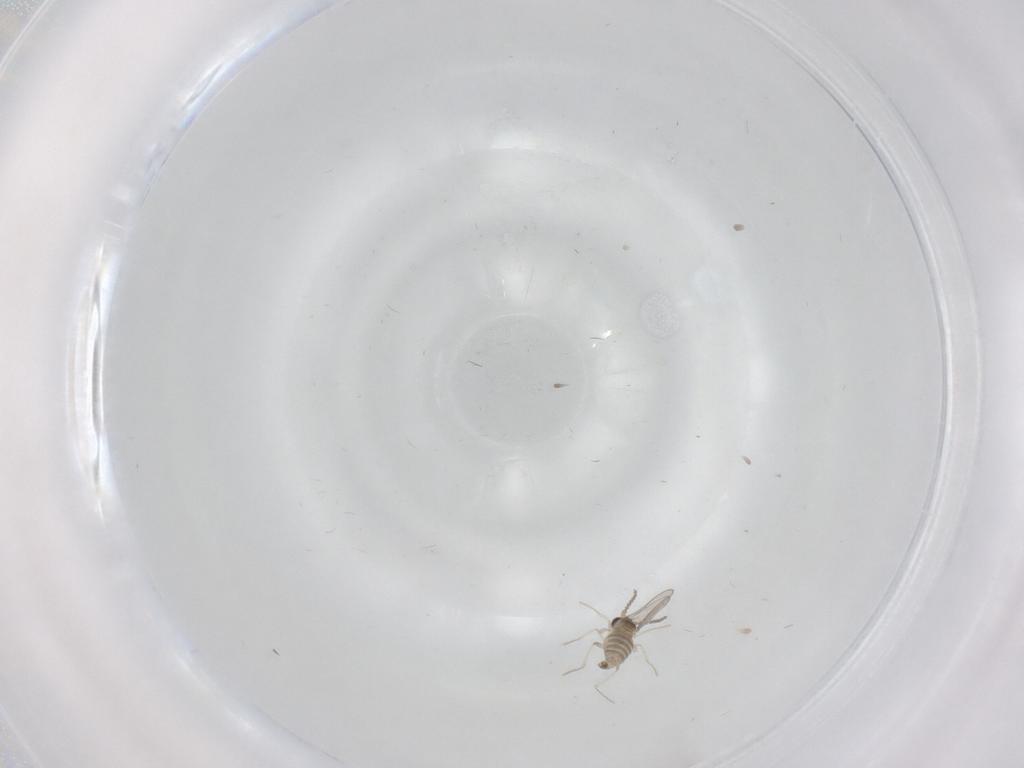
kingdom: Animalia
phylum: Arthropoda
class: Insecta
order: Diptera
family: Cecidomyiidae
